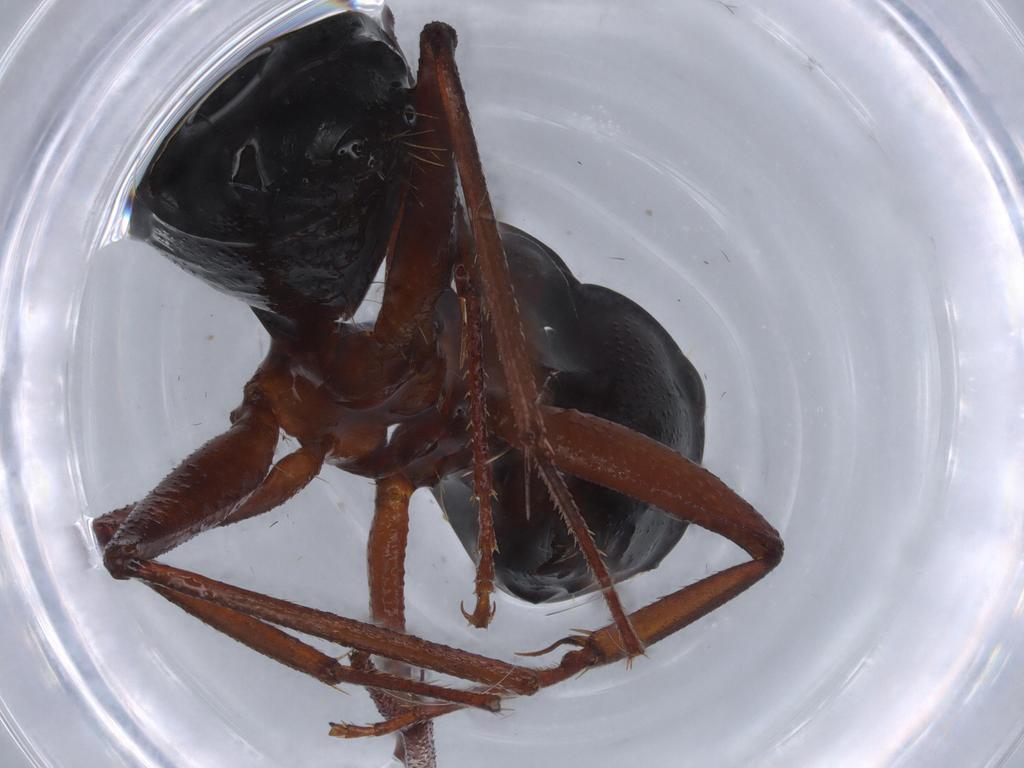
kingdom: Animalia
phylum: Arthropoda
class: Insecta
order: Hymenoptera
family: Formicidae
